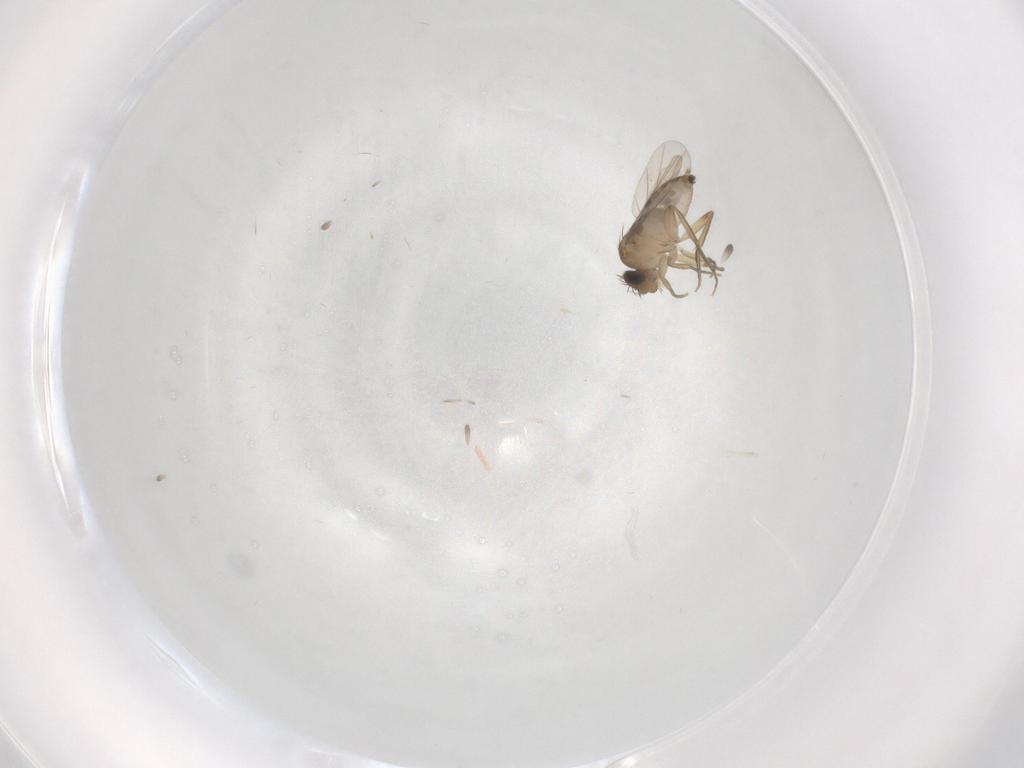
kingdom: Animalia
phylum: Arthropoda
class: Insecta
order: Diptera
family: Phoridae
